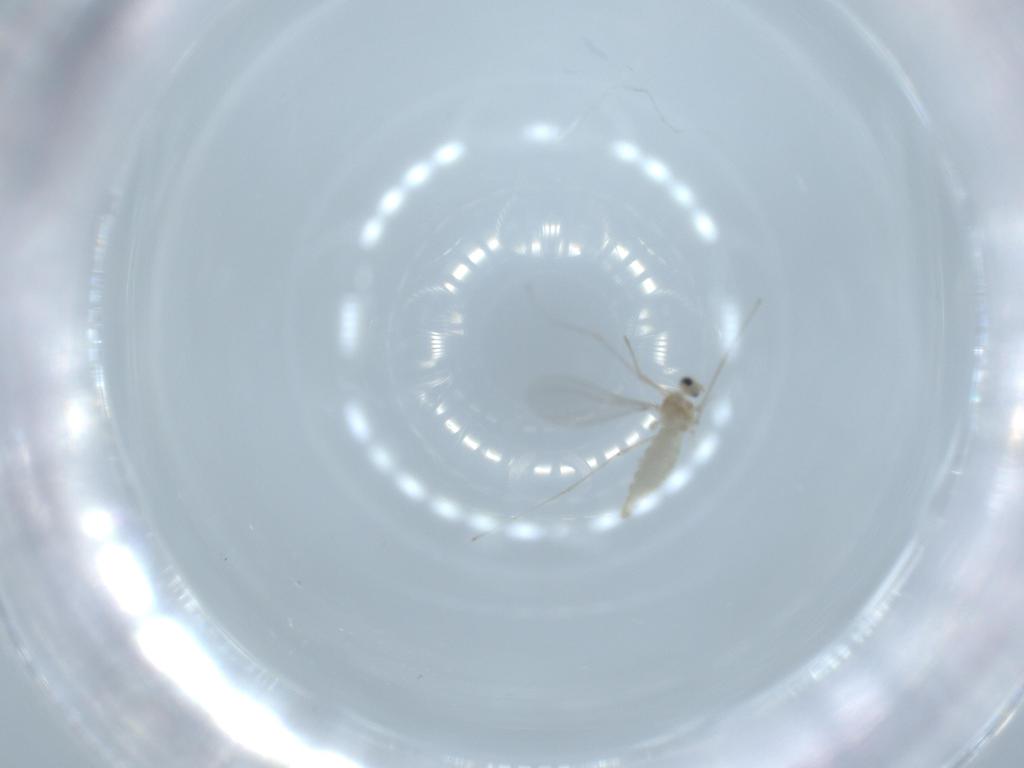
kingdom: Animalia
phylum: Arthropoda
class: Insecta
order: Diptera
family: Cecidomyiidae
